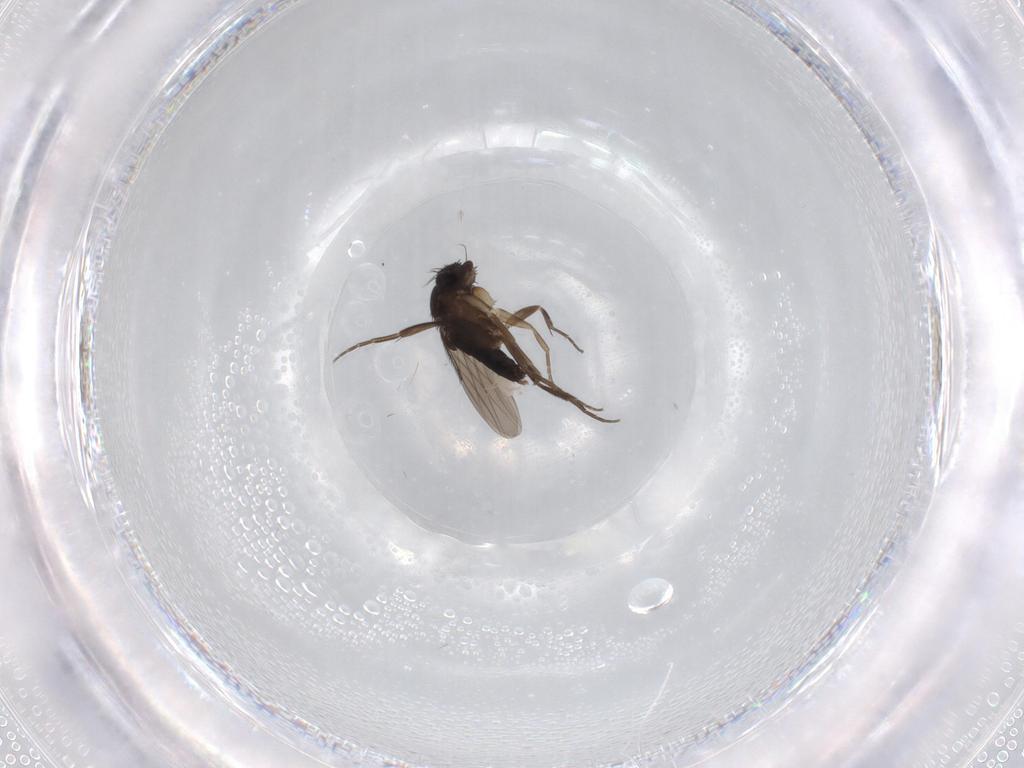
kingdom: Animalia
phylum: Arthropoda
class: Insecta
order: Diptera
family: Phoridae
